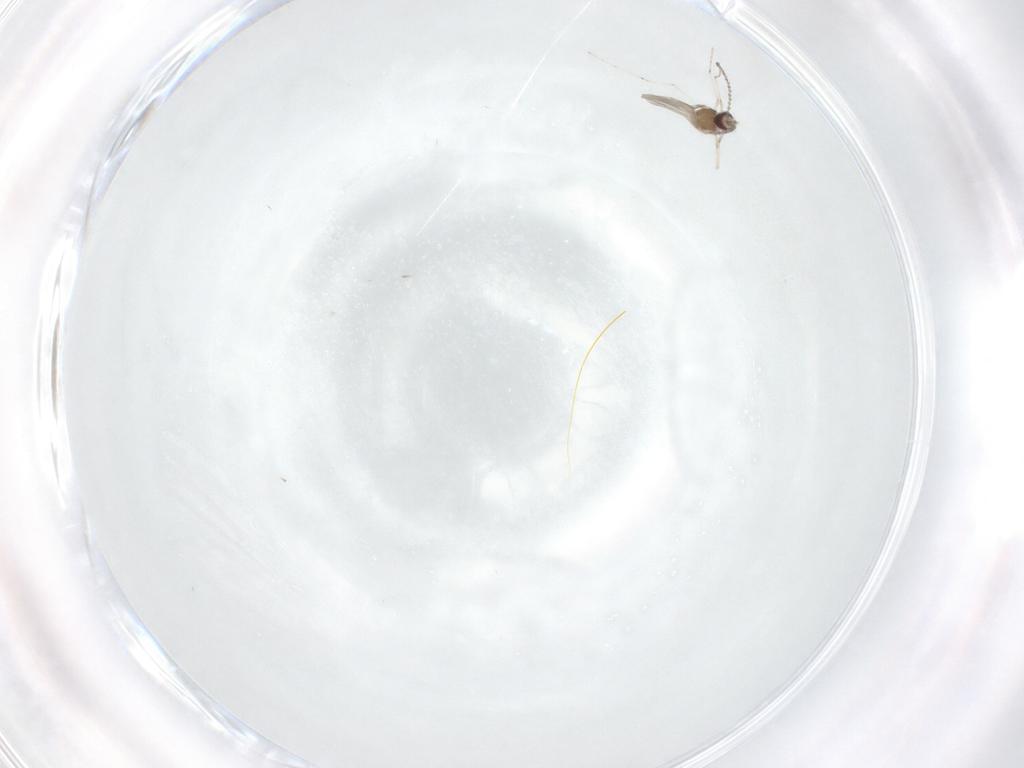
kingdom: Animalia
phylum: Arthropoda
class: Insecta
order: Diptera
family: Cecidomyiidae
